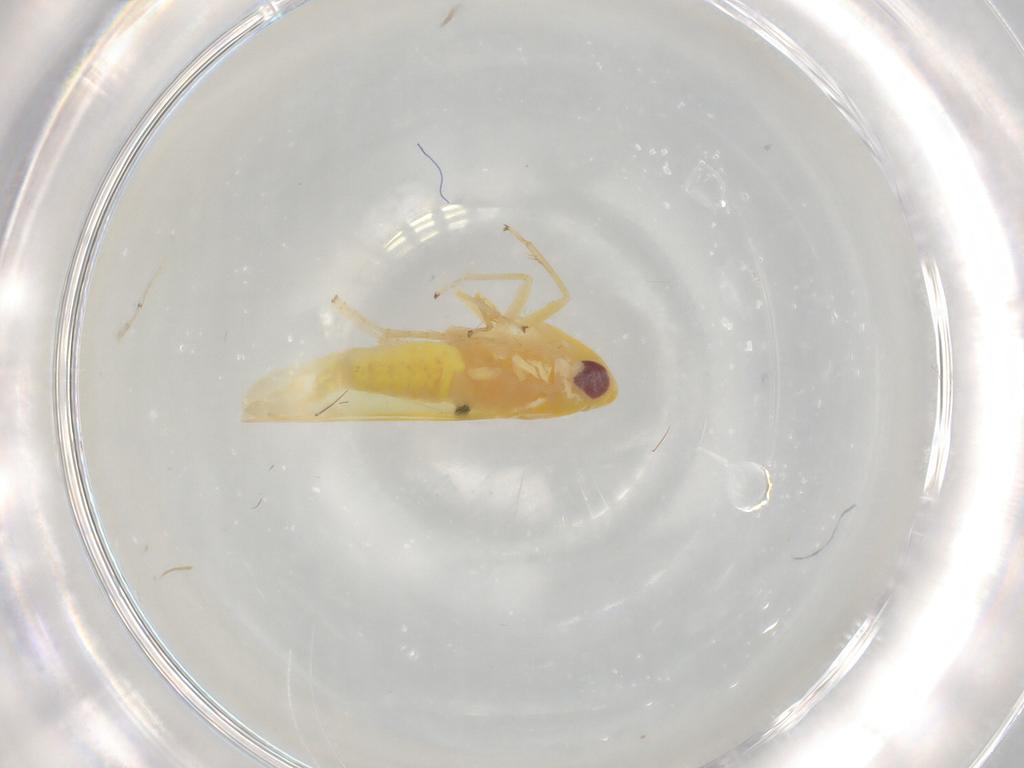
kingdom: Animalia
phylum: Arthropoda
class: Insecta
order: Hemiptera
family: Cicadellidae
